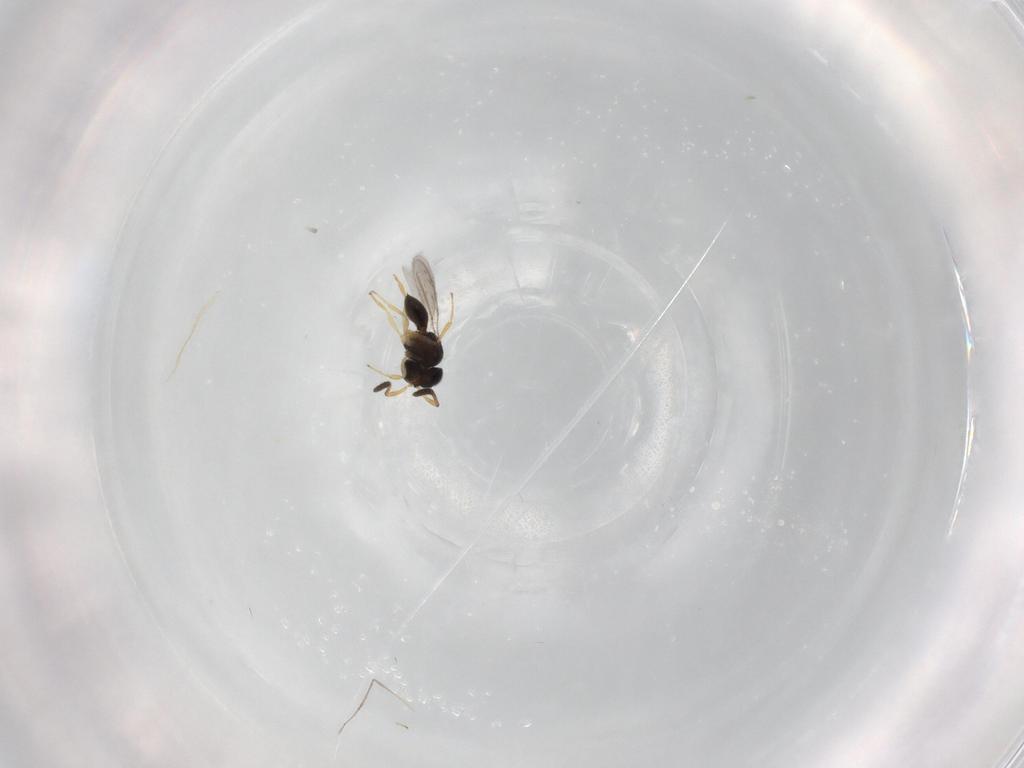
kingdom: Animalia
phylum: Arthropoda
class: Insecta
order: Hymenoptera
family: Scelionidae
